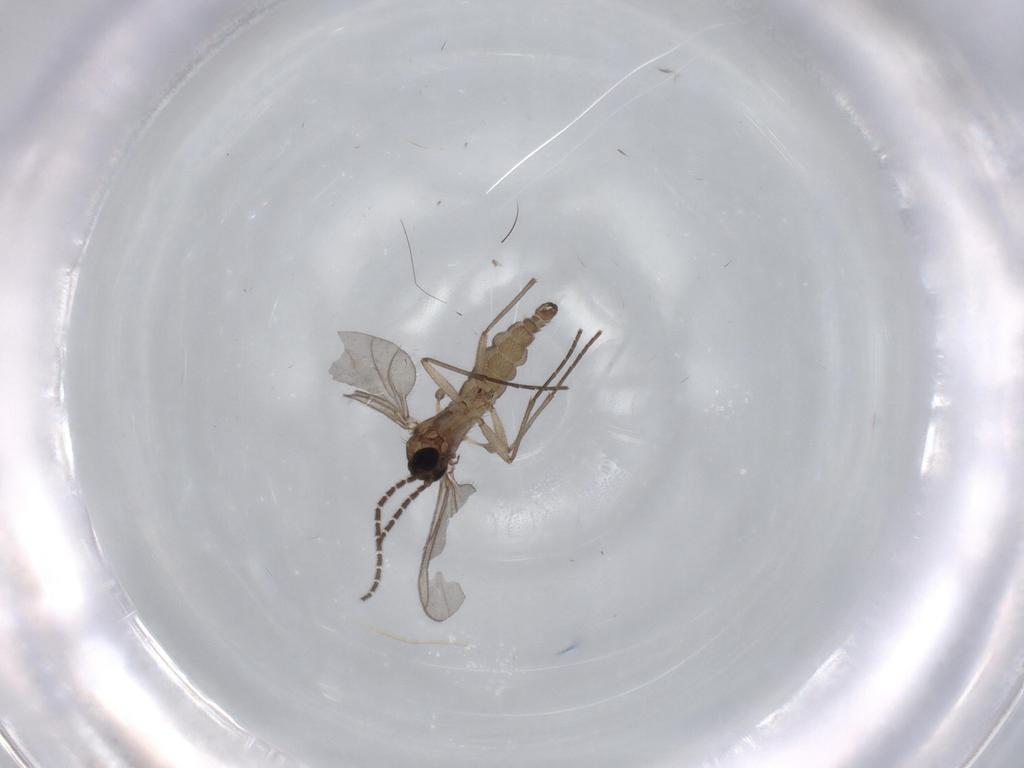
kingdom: Animalia
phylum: Arthropoda
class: Insecta
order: Diptera
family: Sciaridae
